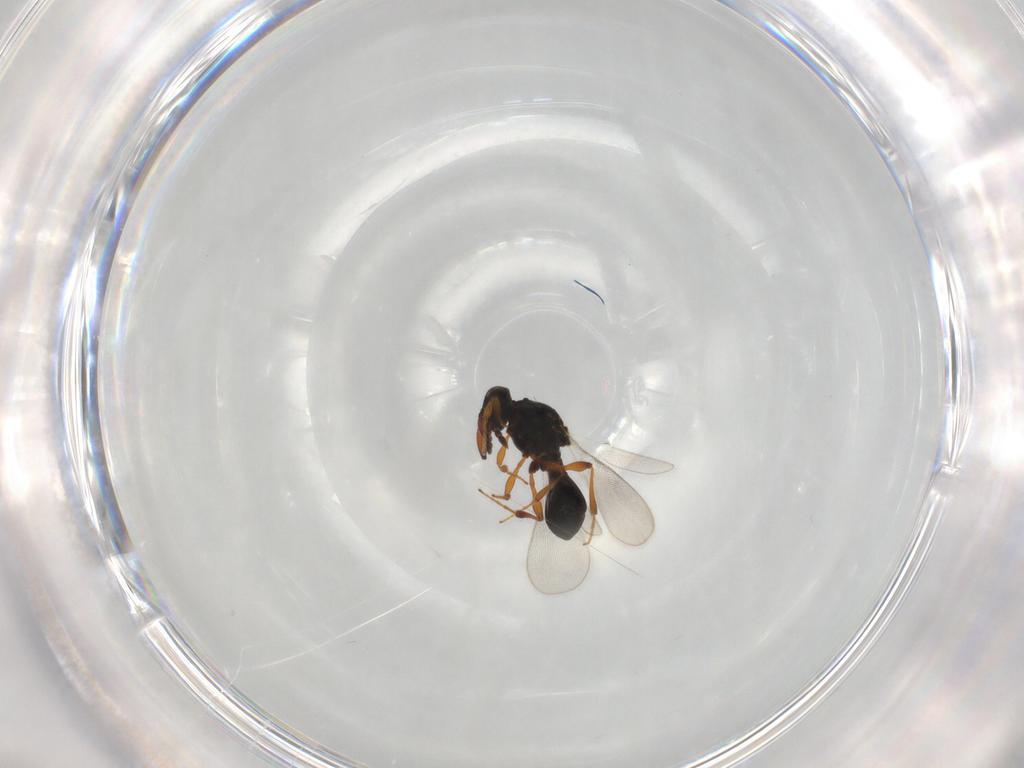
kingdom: Animalia
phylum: Arthropoda
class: Insecta
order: Hymenoptera
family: Platygastridae
